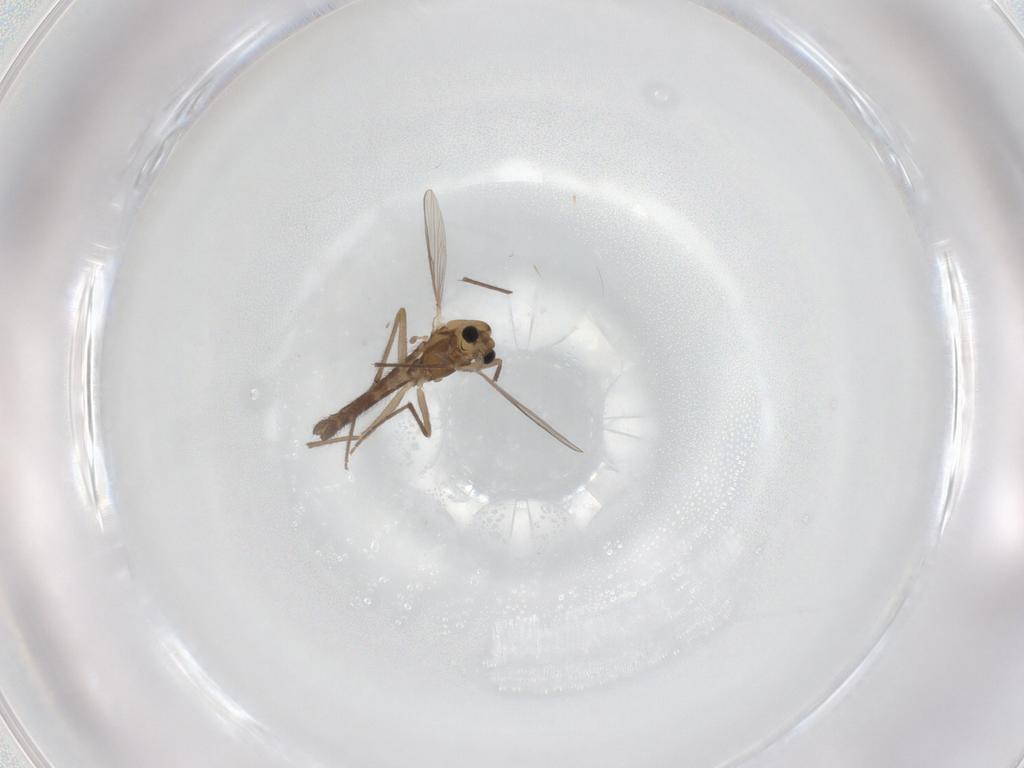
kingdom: Animalia
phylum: Arthropoda
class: Insecta
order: Diptera
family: Chironomidae
